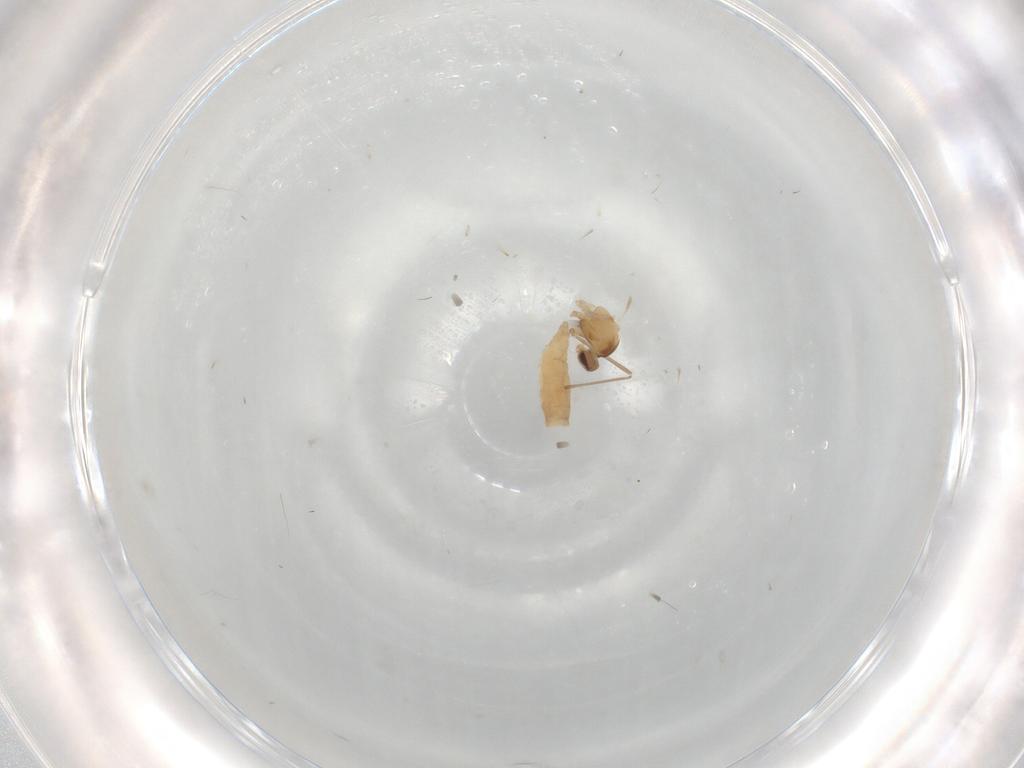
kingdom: Animalia
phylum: Arthropoda
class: Insecta
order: Diptera
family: Cecidomyiidae
